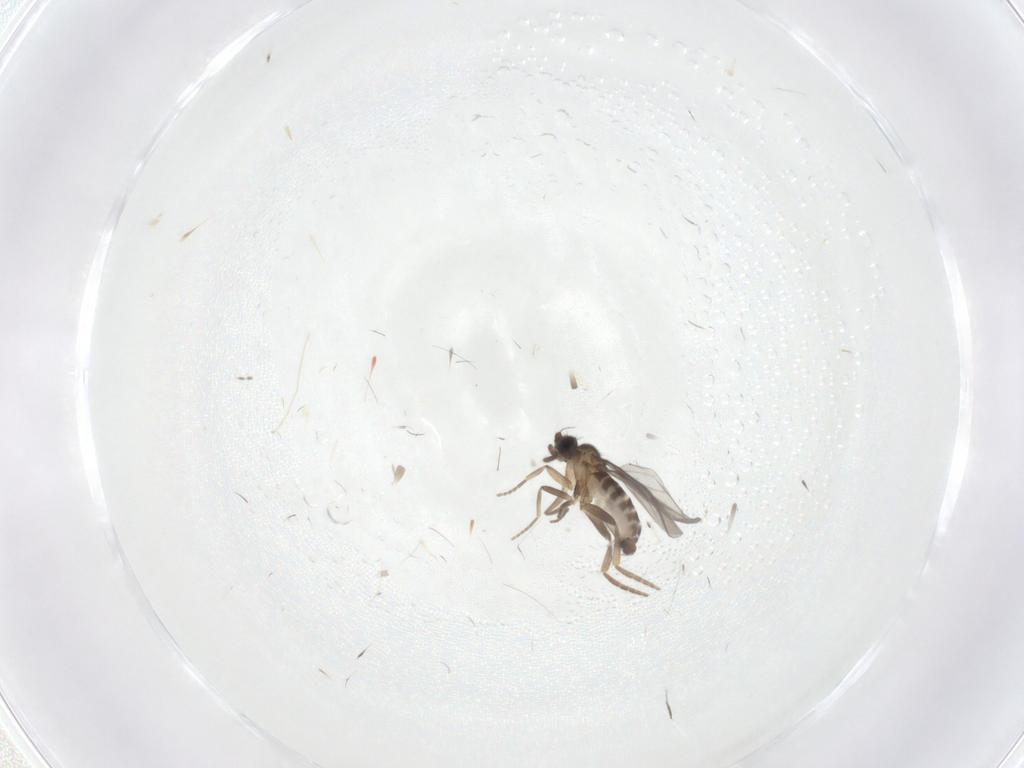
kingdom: Animalia
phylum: Arthropoda
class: Insecta
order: Diptera
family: Cecidomyiidae
